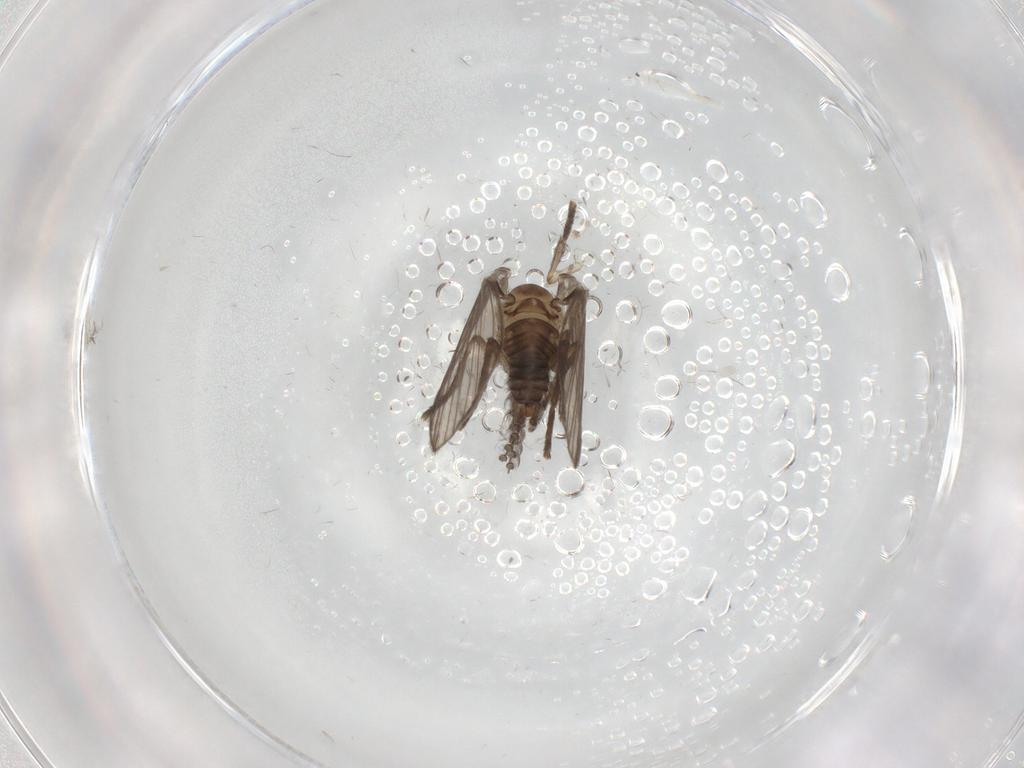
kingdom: Animalia
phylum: Arthropoda
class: Insecta
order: Diptera
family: Psychodidae
